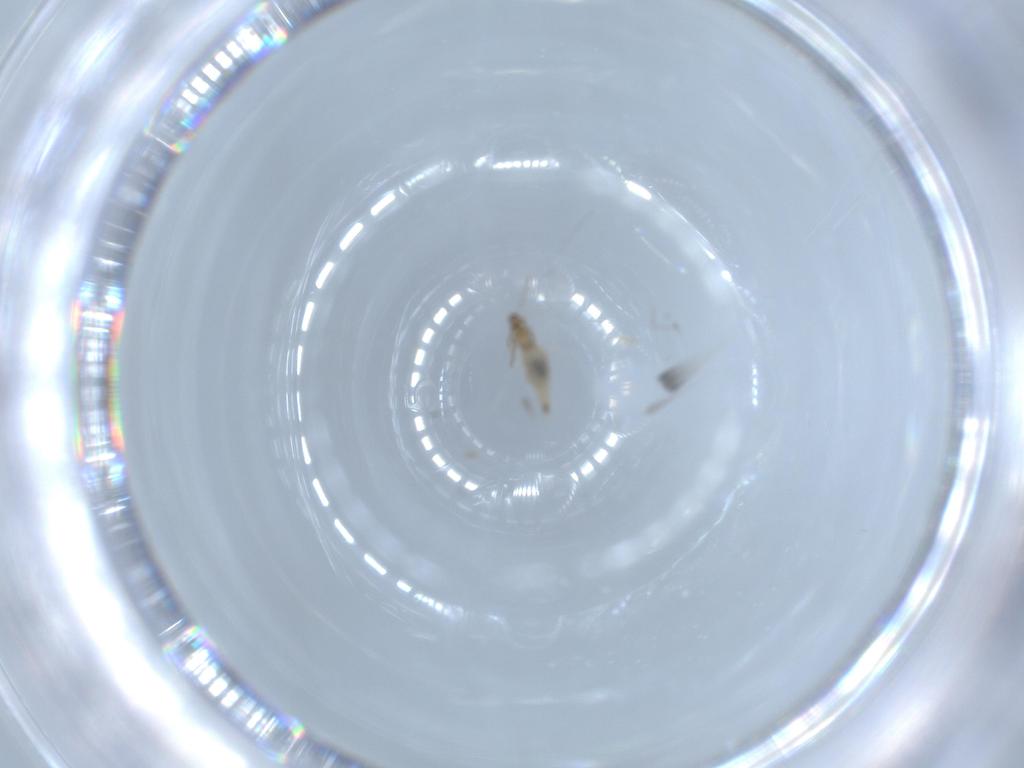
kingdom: Animalia
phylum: Arthropoda
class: Insecta
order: Diptera
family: Cecidomyiidae
